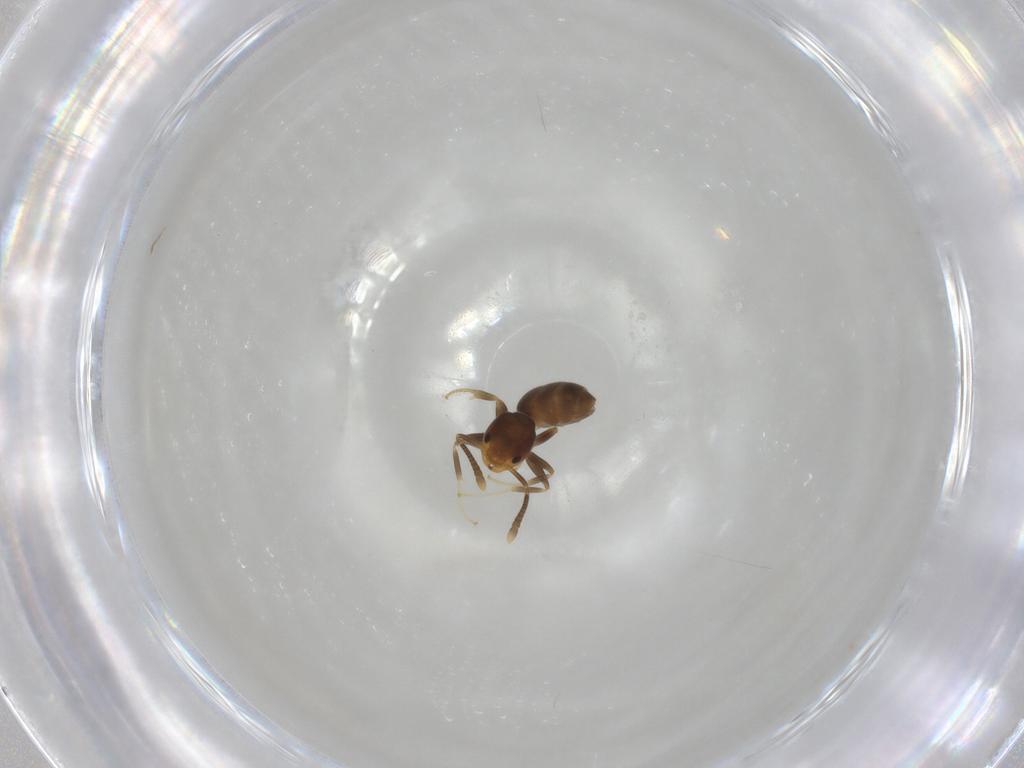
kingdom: Animalia
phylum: Arthropoda
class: Insecta
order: Hymenoptera
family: Formicidae
